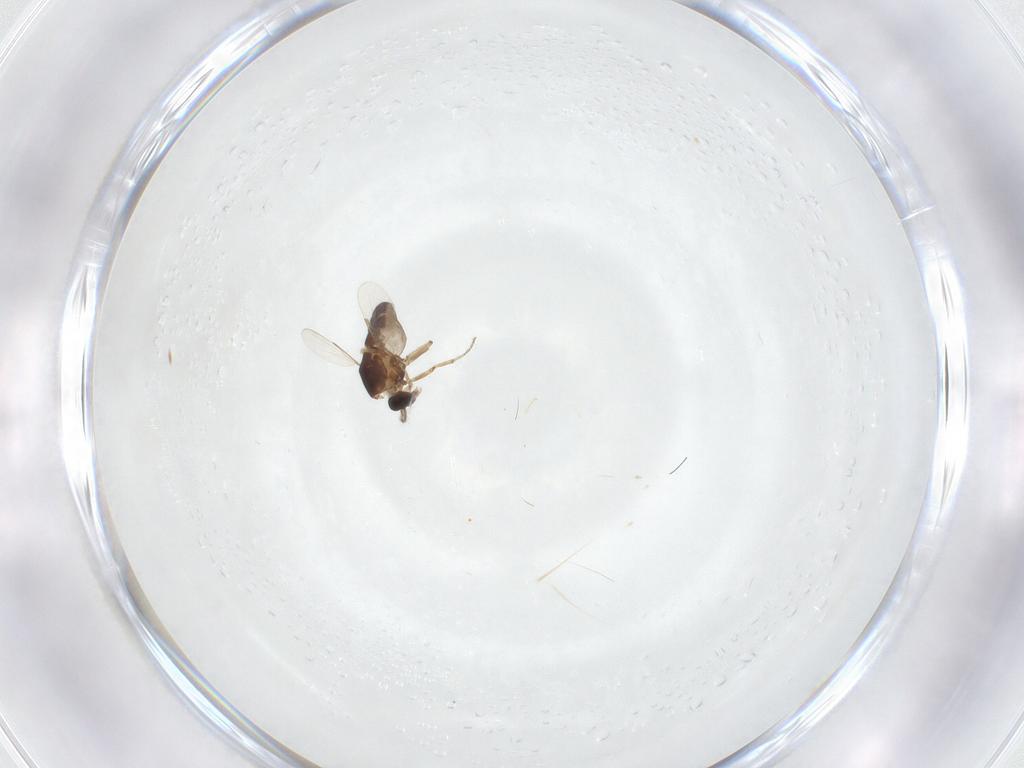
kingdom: Animalia
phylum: Arthropoda
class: Insecta
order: Diptera
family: Ceratopogonidae
